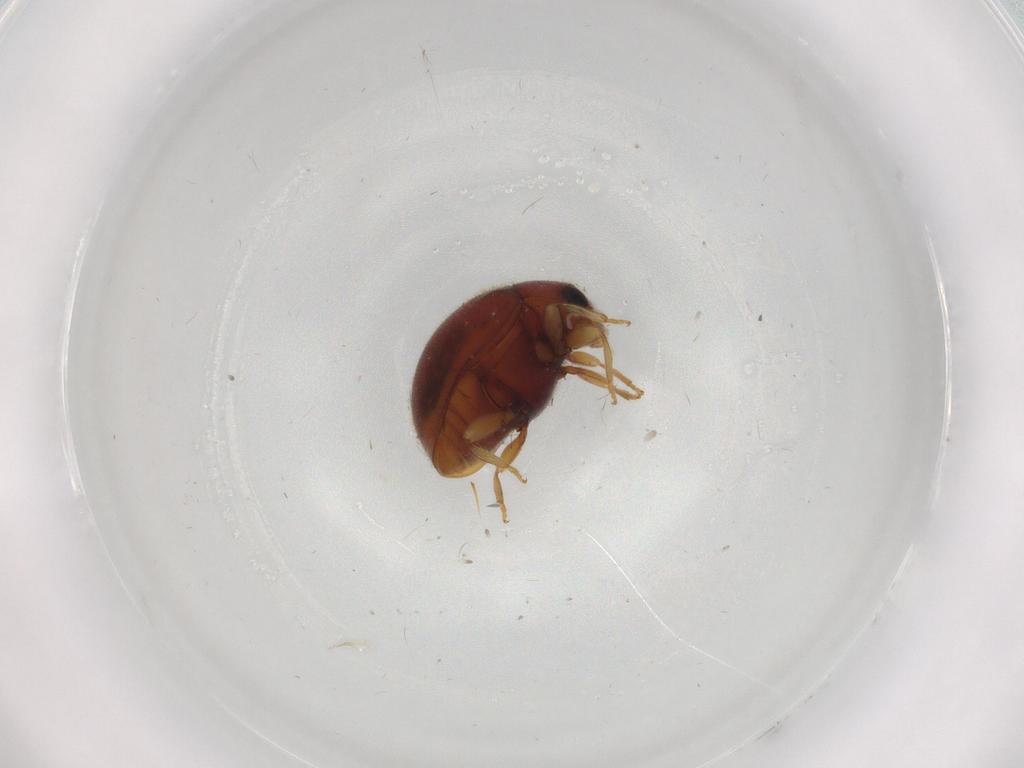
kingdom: Animalia
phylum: Arthropoda
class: Insecta
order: Coleoptera
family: Coccinellidae
